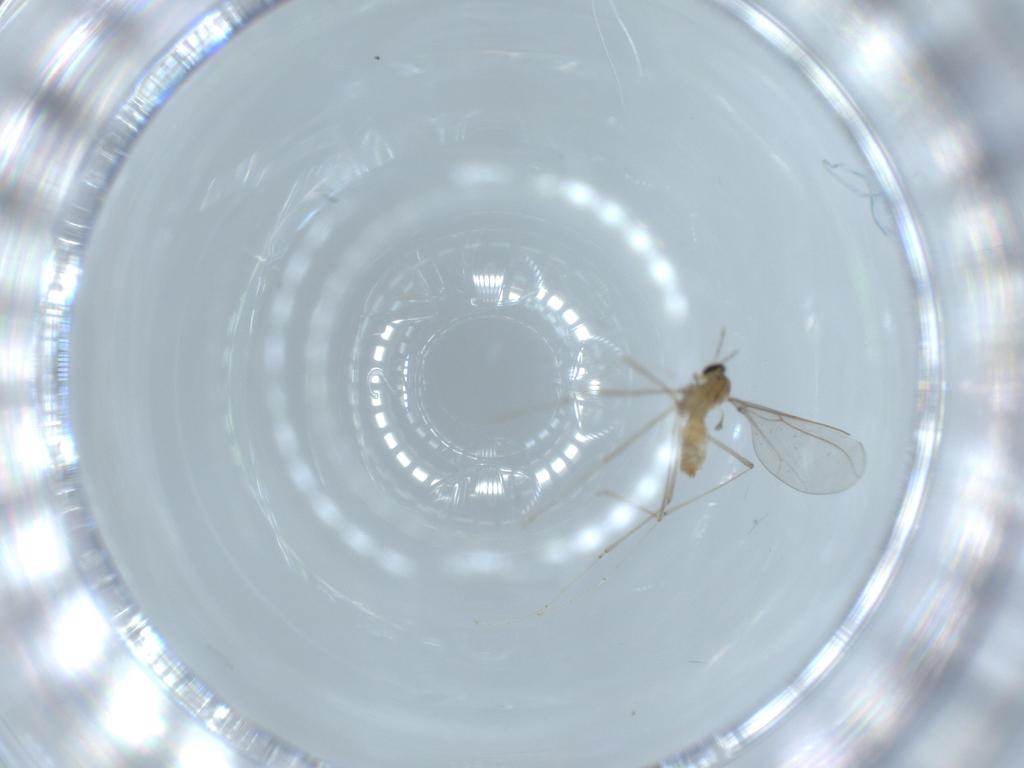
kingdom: Animalia
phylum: Arthropoda
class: Insecta
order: Diptera
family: Cecidomyiidae
